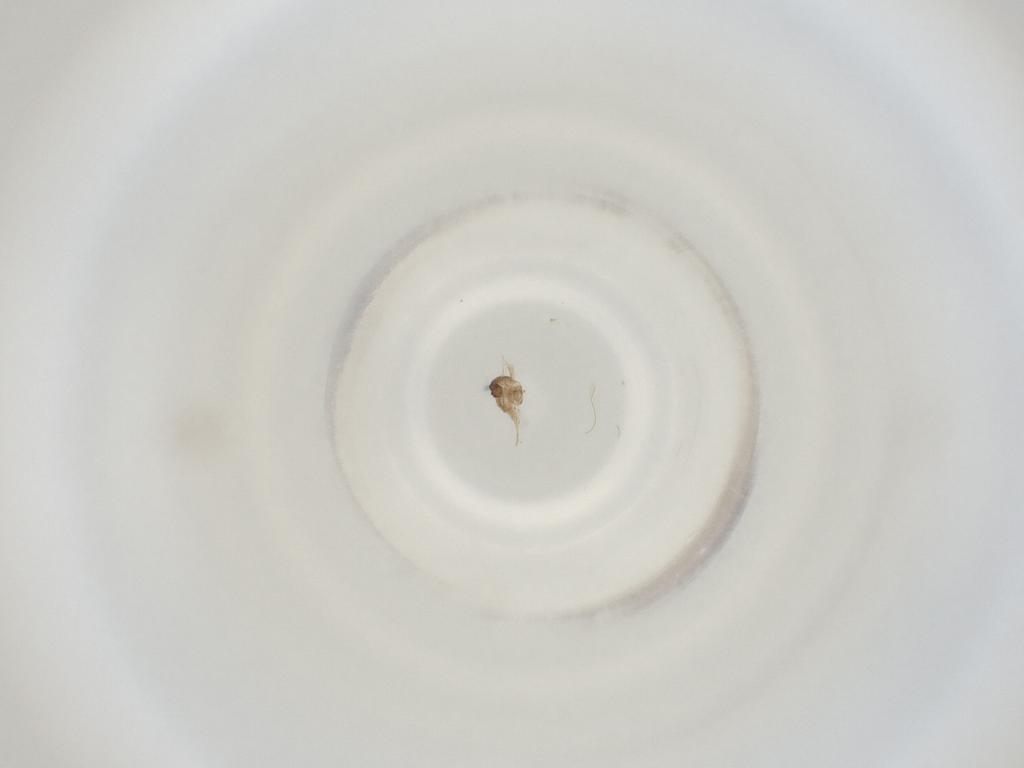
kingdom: Animalia
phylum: Arthropoda
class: Insecta
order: Diptera
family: Cecidomyiidae
